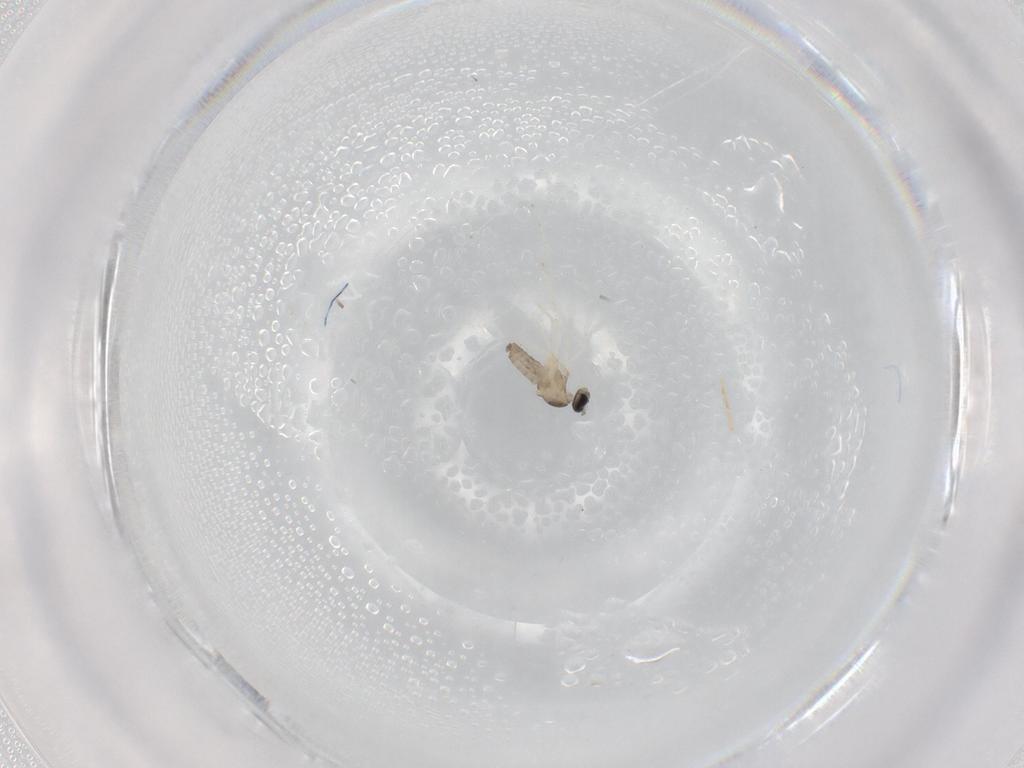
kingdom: Animalia
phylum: Arthropoda
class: Insecta
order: Diptera
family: Cecidomyiidae
